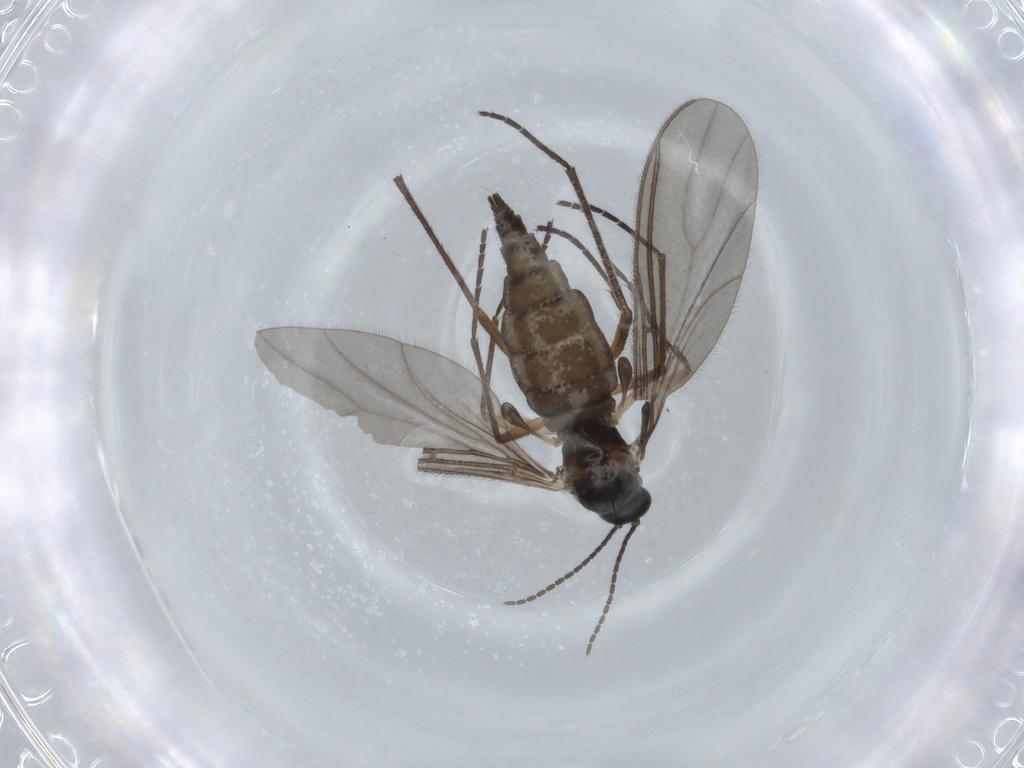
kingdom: Animalia
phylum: Arthropoda
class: Insecta
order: Diptera
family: Sciaridae
